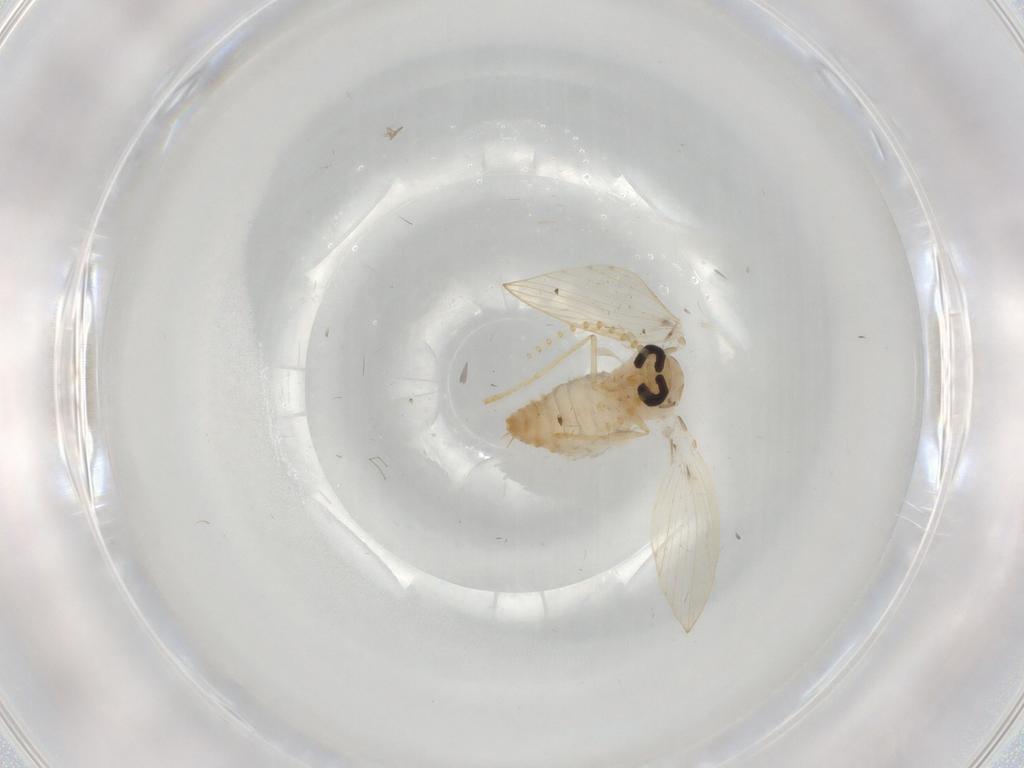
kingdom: Animalia
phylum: Arthropoda
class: Insecta
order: Diptera
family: Psychodidae
